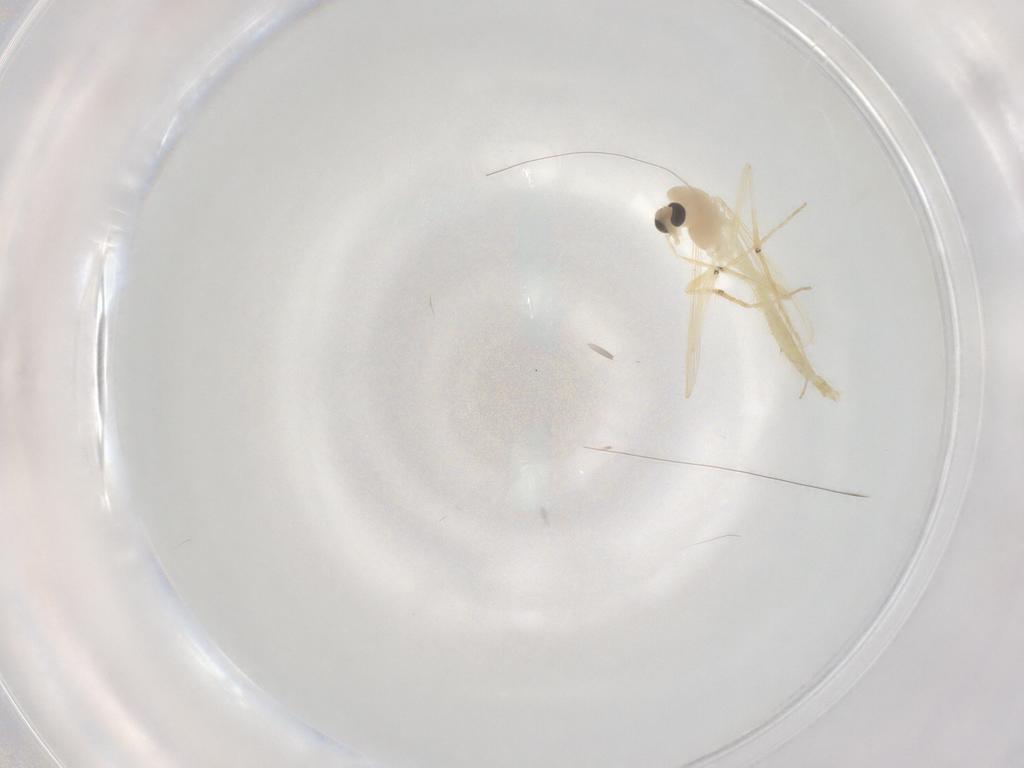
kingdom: Animalia
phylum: Arthropoda
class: Insecta
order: Diptera
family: Chironomidae
